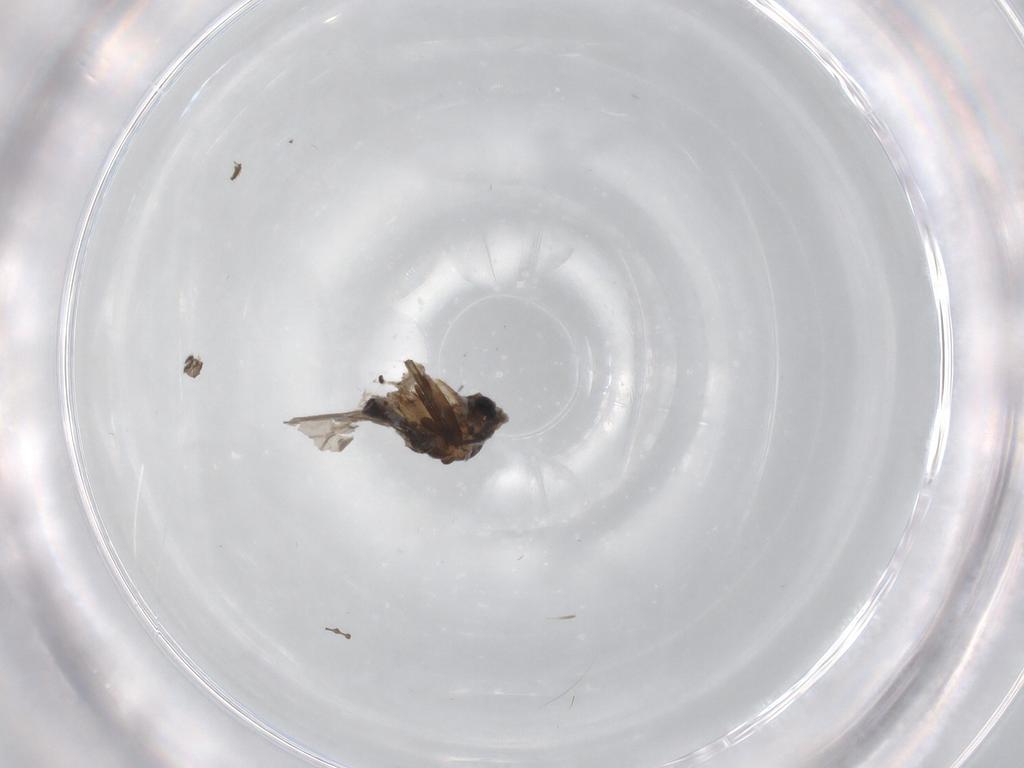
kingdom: Animalia
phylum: Arthropoda
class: Insecta
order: Diptera
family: Sciaridae
